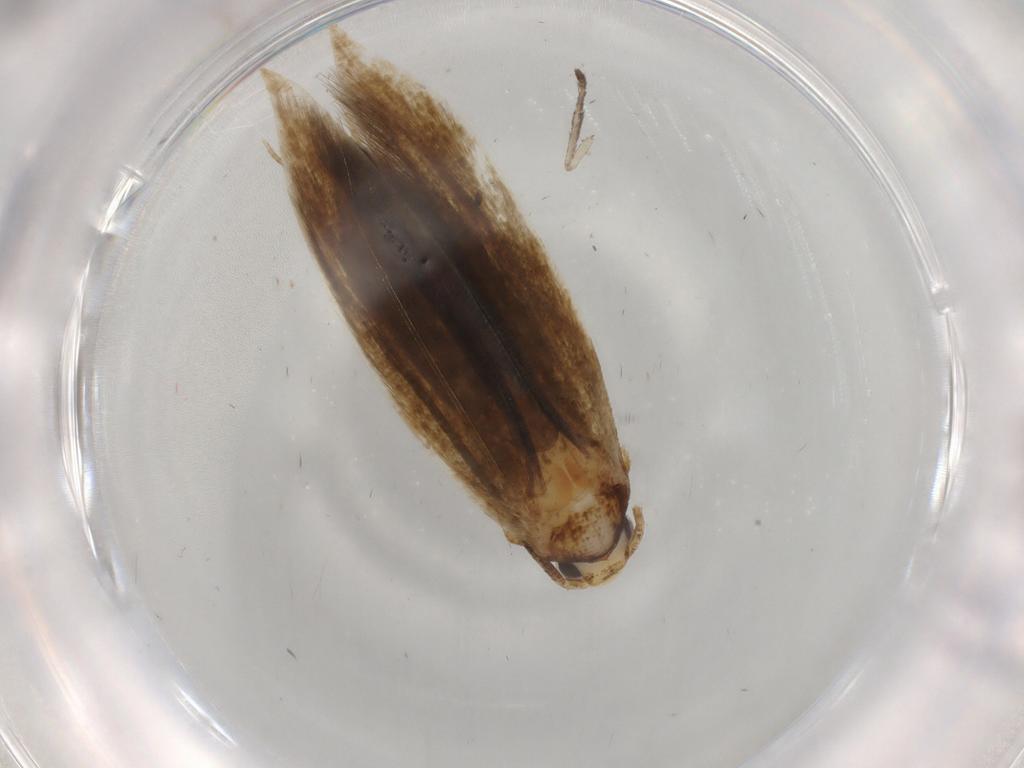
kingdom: Animalia
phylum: Arthropoda
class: Insecta
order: Lepidoptera
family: Tineidae
